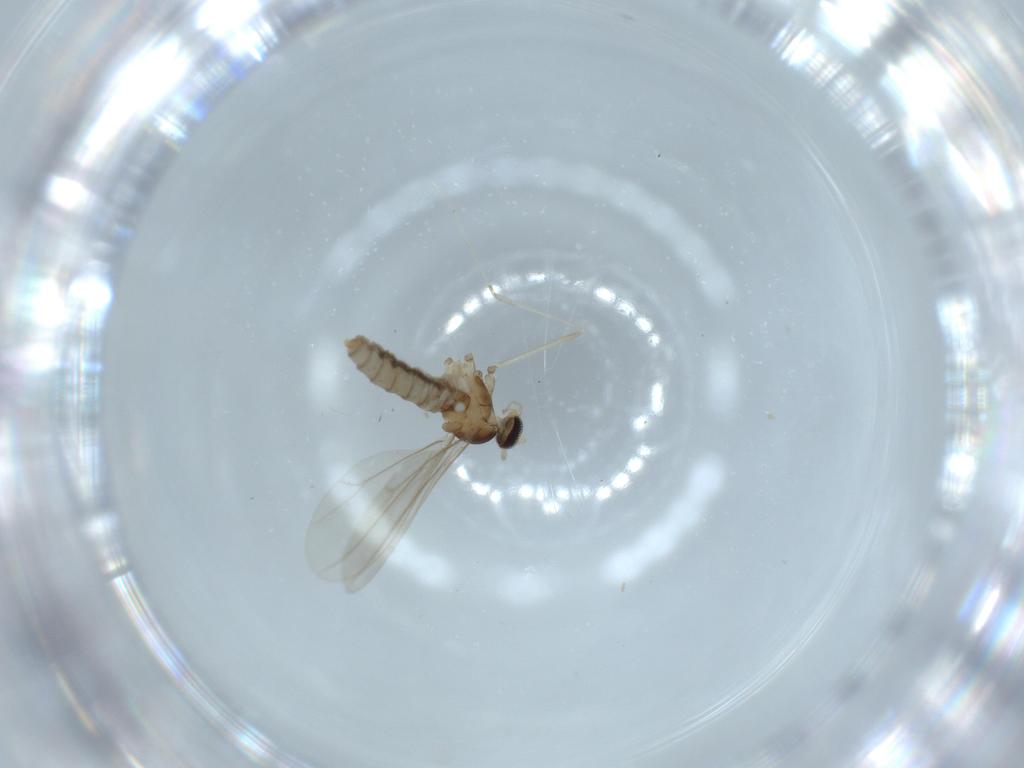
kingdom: Animalia
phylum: Arthropoda
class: Insecta
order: Diptera
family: Cecidomyiidae
